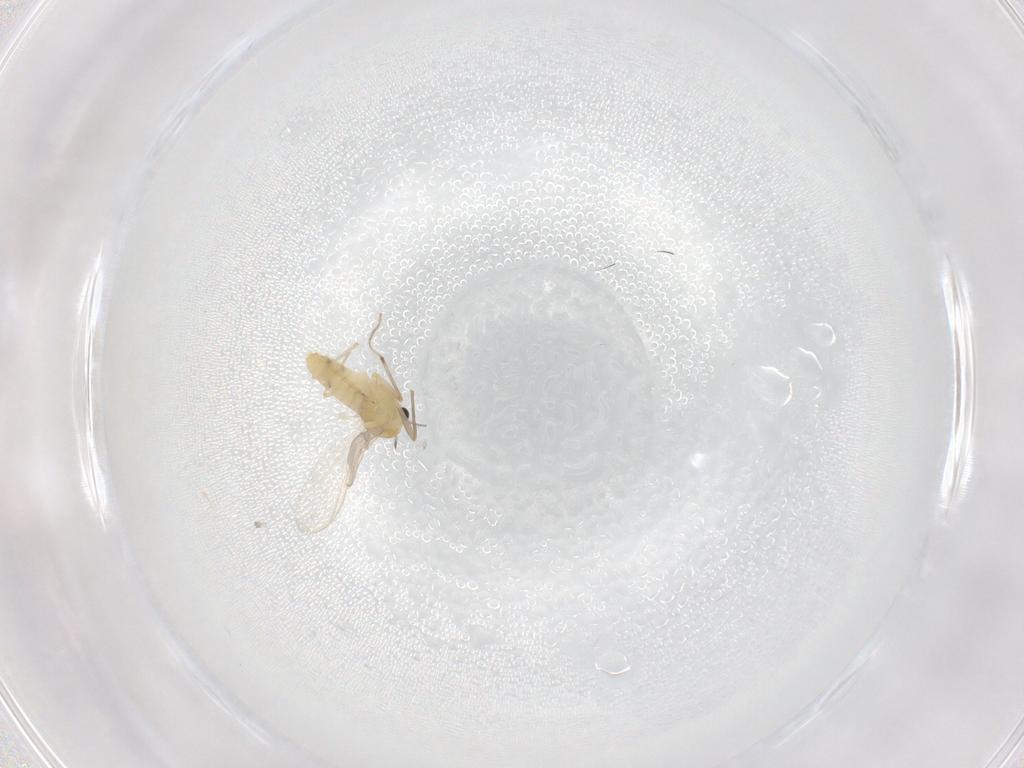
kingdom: Animalia
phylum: Arthropoda
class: Insecta
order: Diptera
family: Chironomidae
